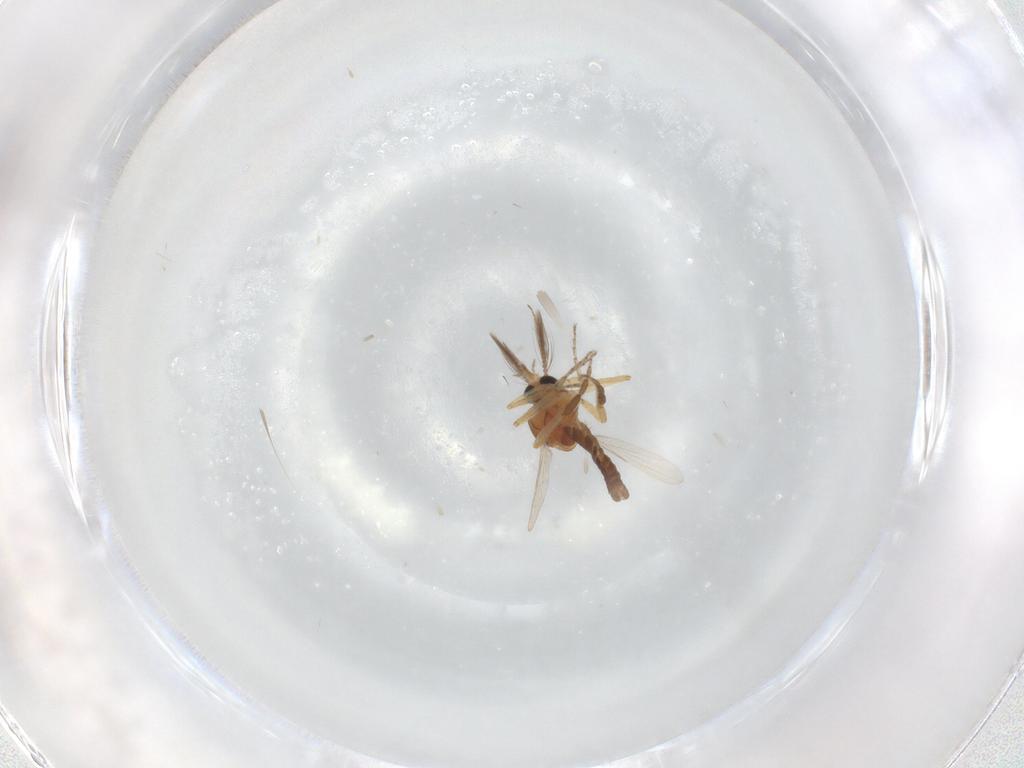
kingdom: Animalia
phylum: Arthropoda
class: Insecta
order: Diptera
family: Ceratopogonidae
